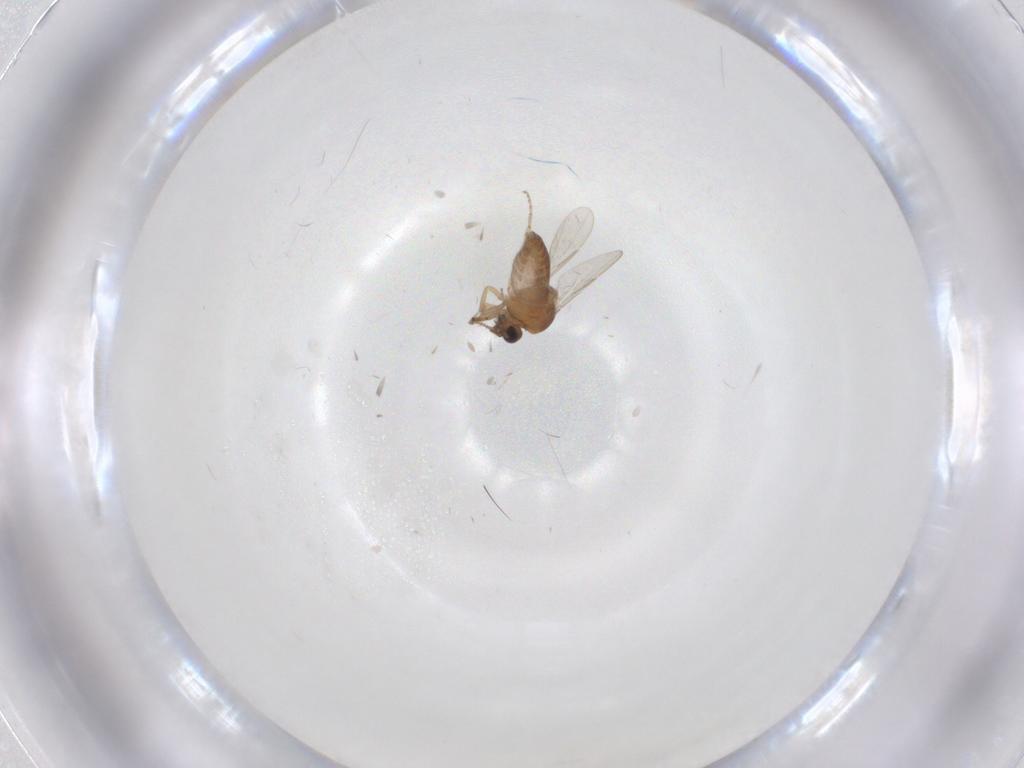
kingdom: Animalia
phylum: Arthropoda
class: Insecta
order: Diptera
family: Ceratopogonidae
